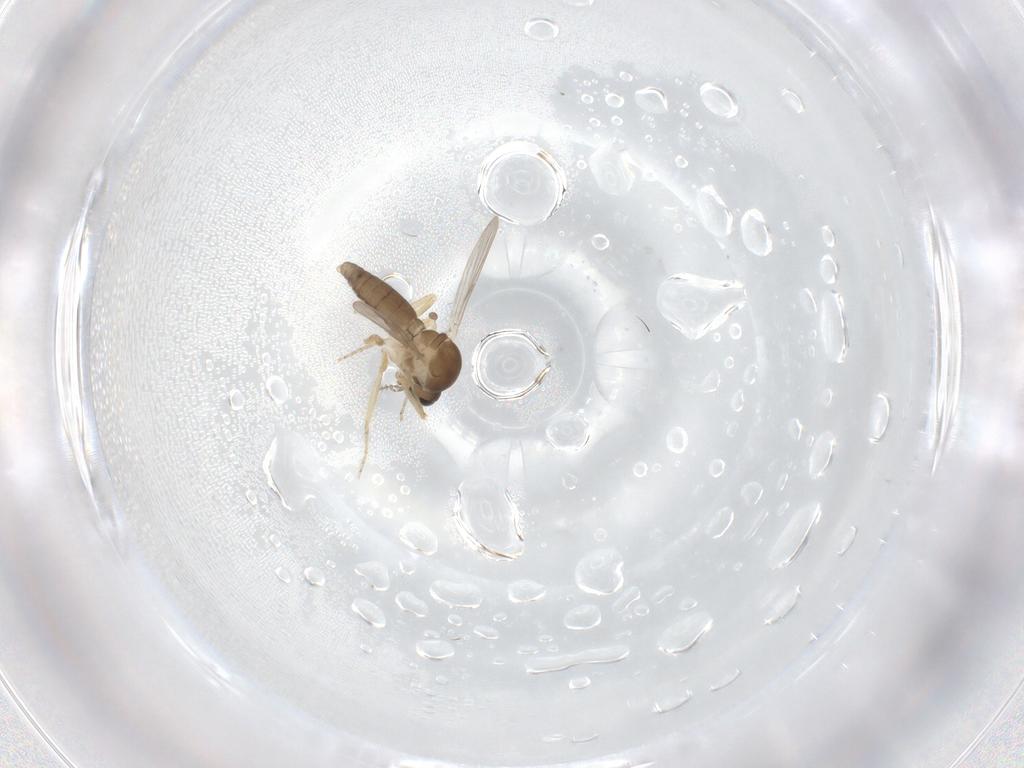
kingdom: Animalia
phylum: Arthropoda
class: Insecta
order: Diptera
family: Ceratopogonidae
